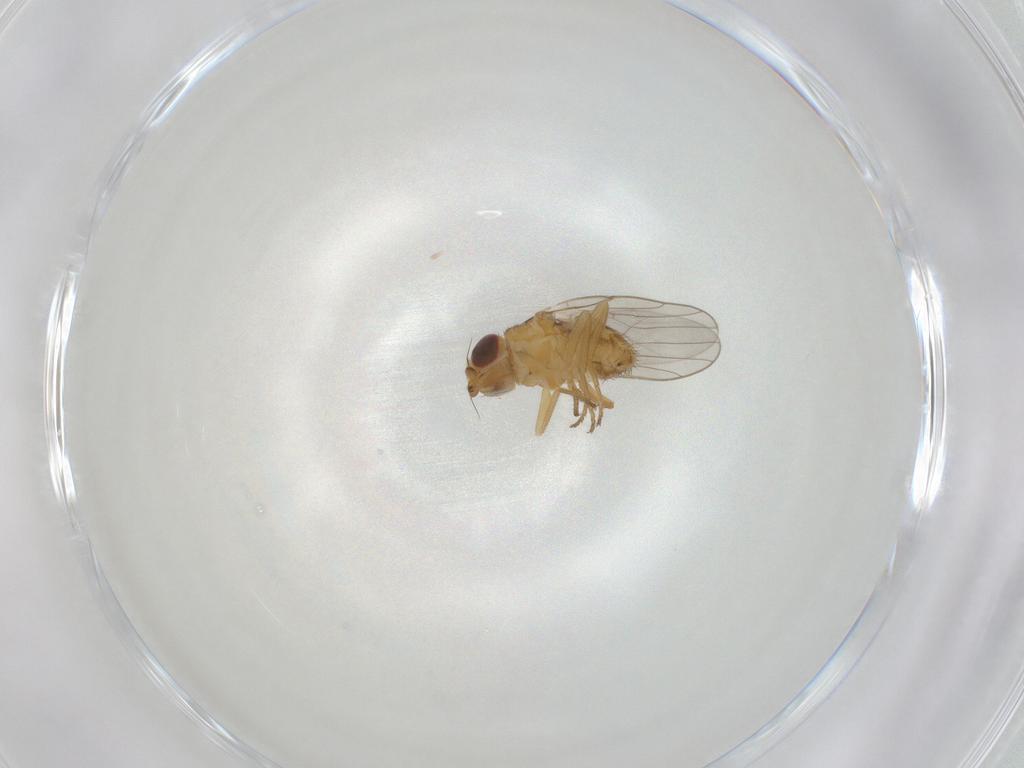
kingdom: Animalia
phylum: Arthropoda
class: Insecta
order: Diptera
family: Chloropidae
